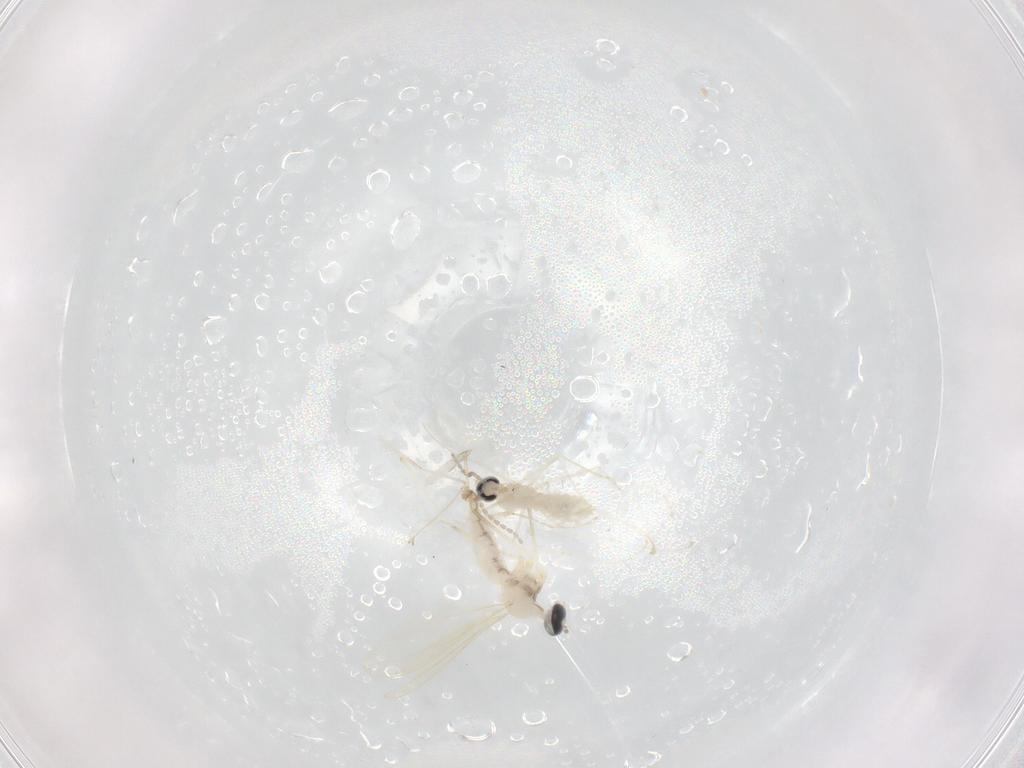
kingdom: Animalia
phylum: Arthropoda
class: Insecta
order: Diptera
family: Cecidomyiidae
